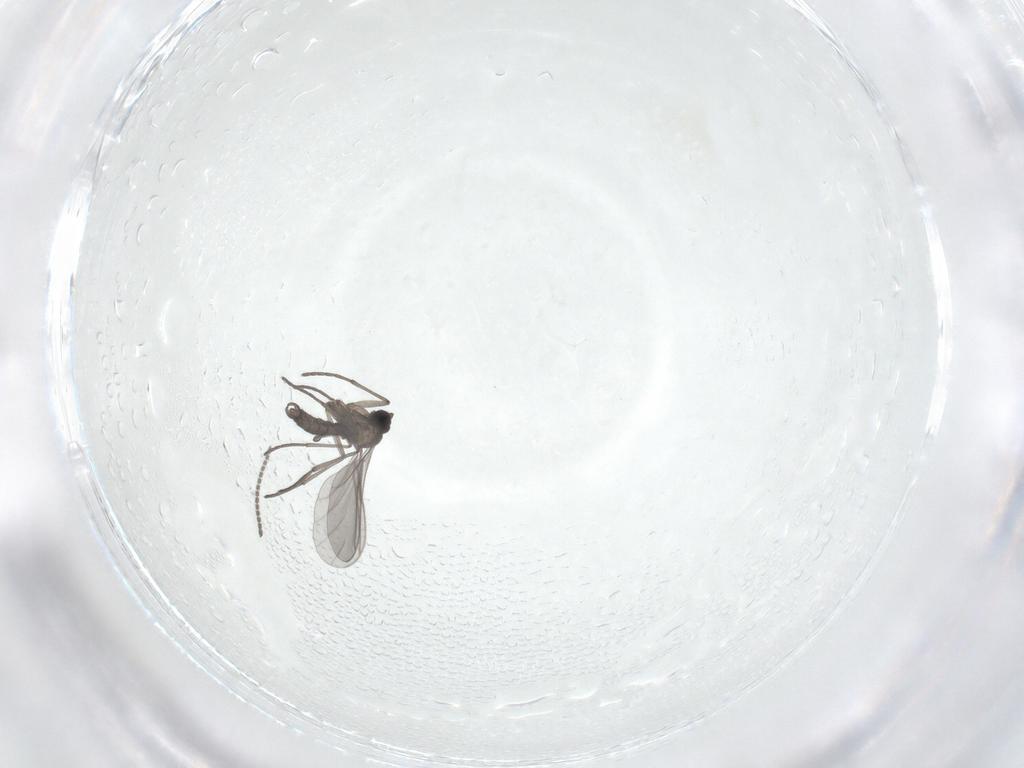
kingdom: Animalia
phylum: Arthropoda
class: Insecta
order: Diptera
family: Sciaridae
